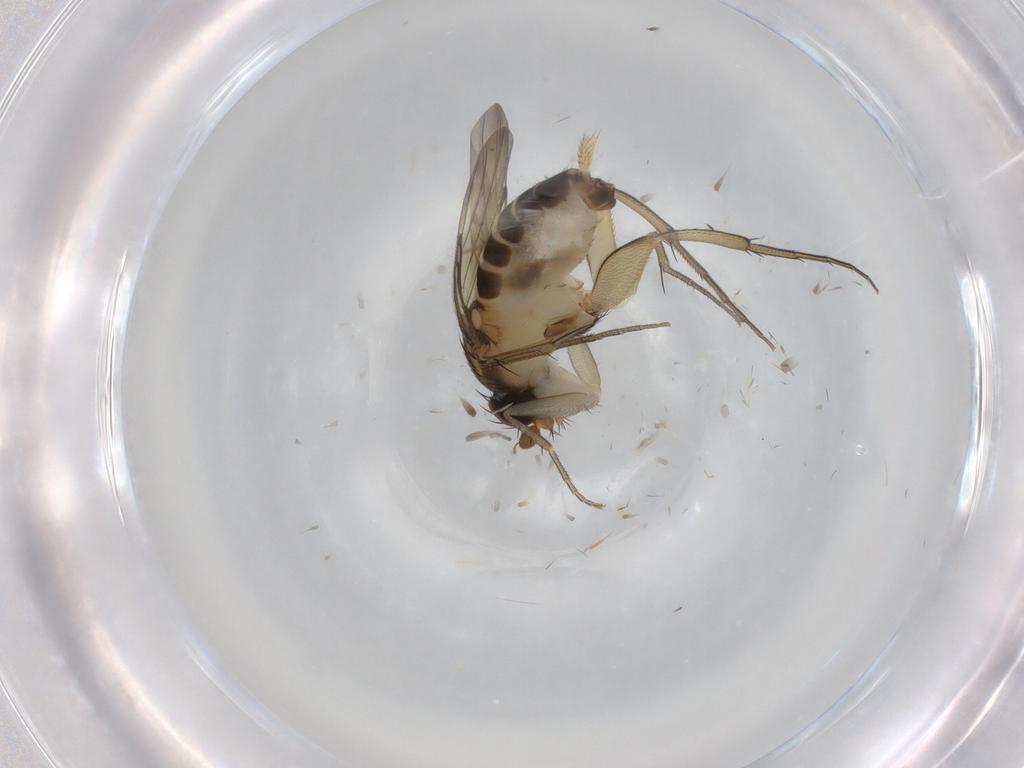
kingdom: Animalia
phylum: Arthropoda
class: Insecta
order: Diptera
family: Phoridae
